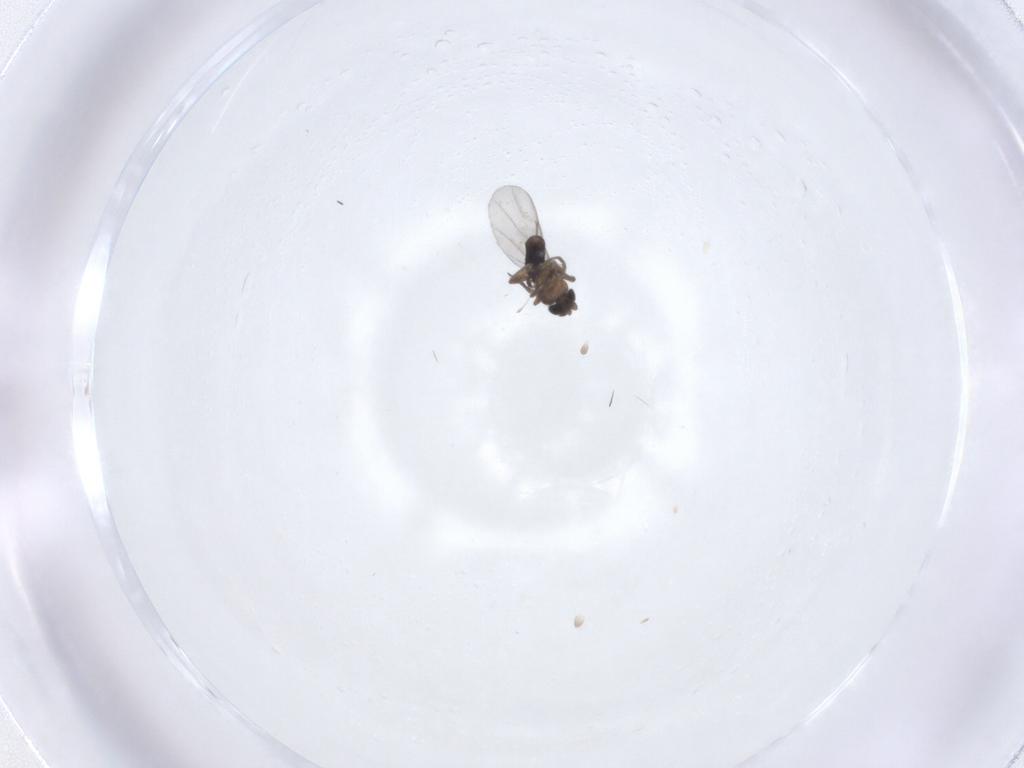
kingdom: Animalia
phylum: Arthropoda
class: Insecta
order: Diptera
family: Phoridae
